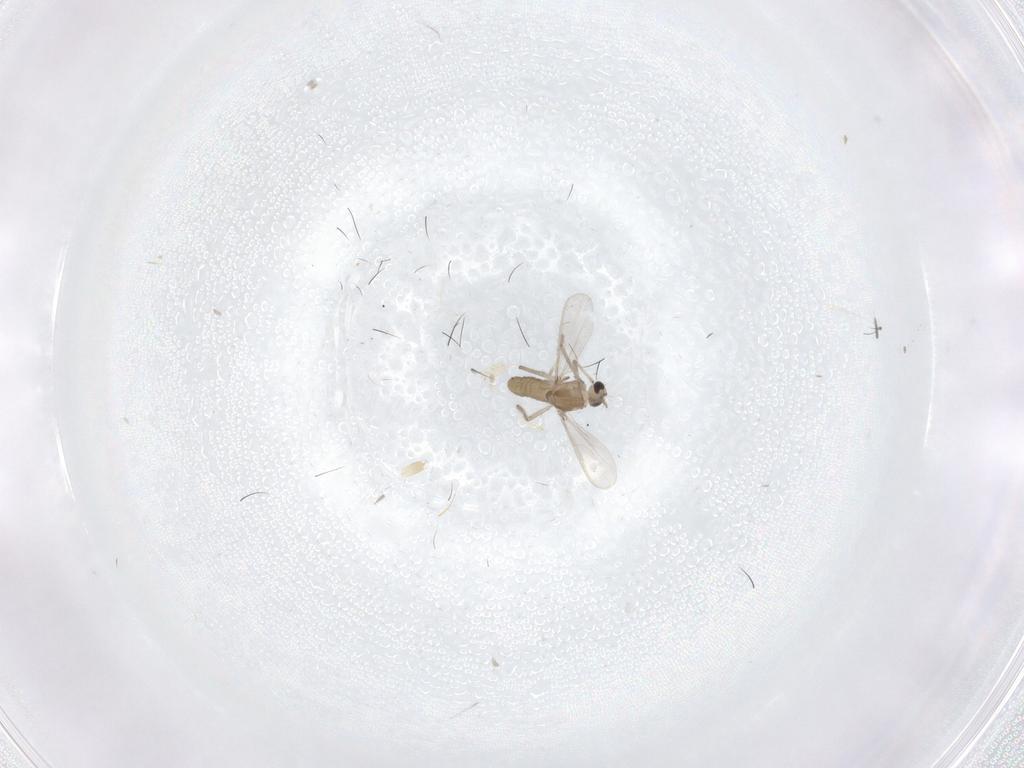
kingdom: Animalia
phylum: Arthropoda
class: Insecta
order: Diptera
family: Chironomidae
